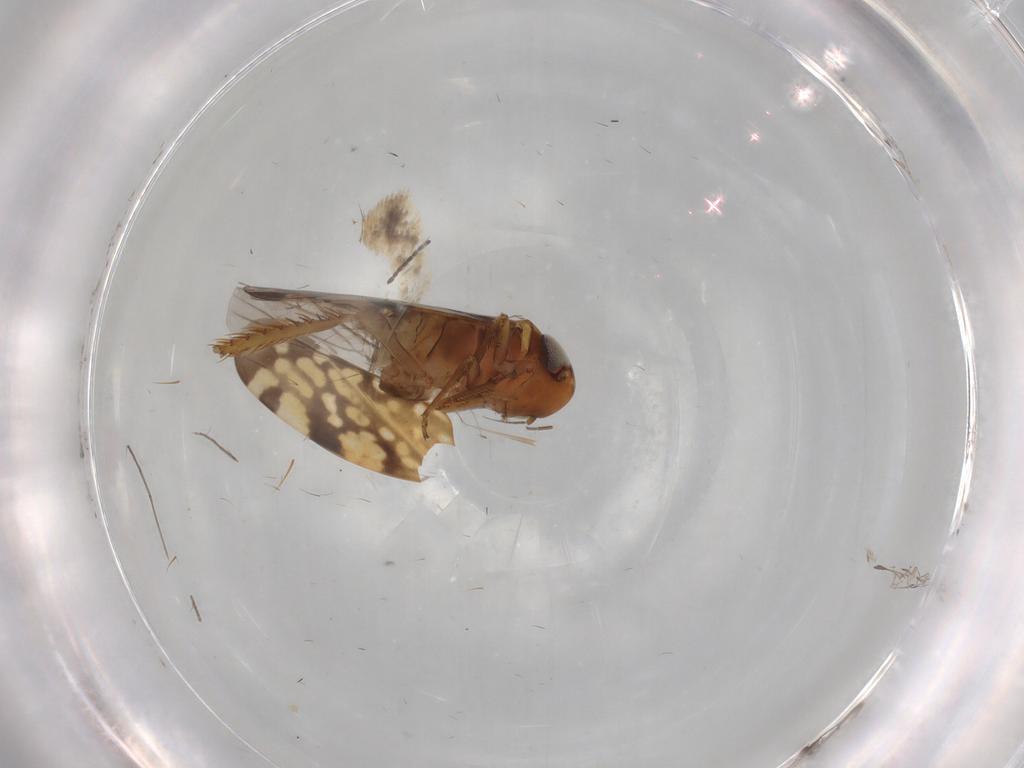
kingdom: Animalia
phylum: Arthropoda
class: Insecta
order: Hemiptera
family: Cicadellidae
